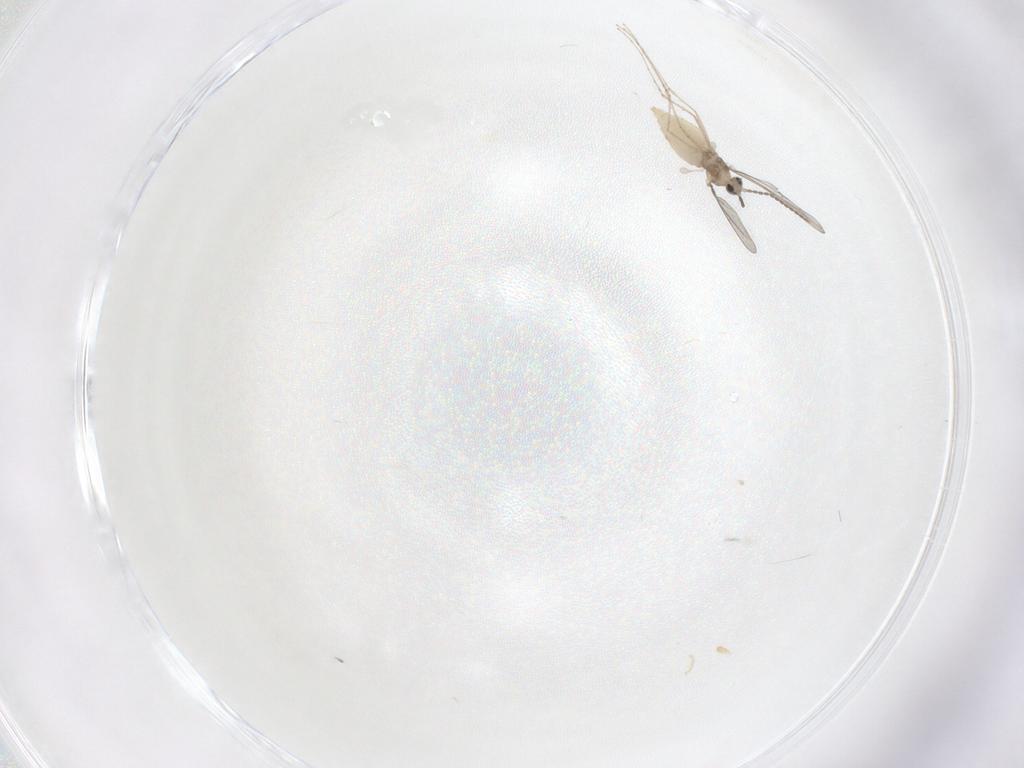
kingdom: Animalia
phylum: Arthropoda
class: Insecta
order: Diptera
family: Cecidomyiidae
